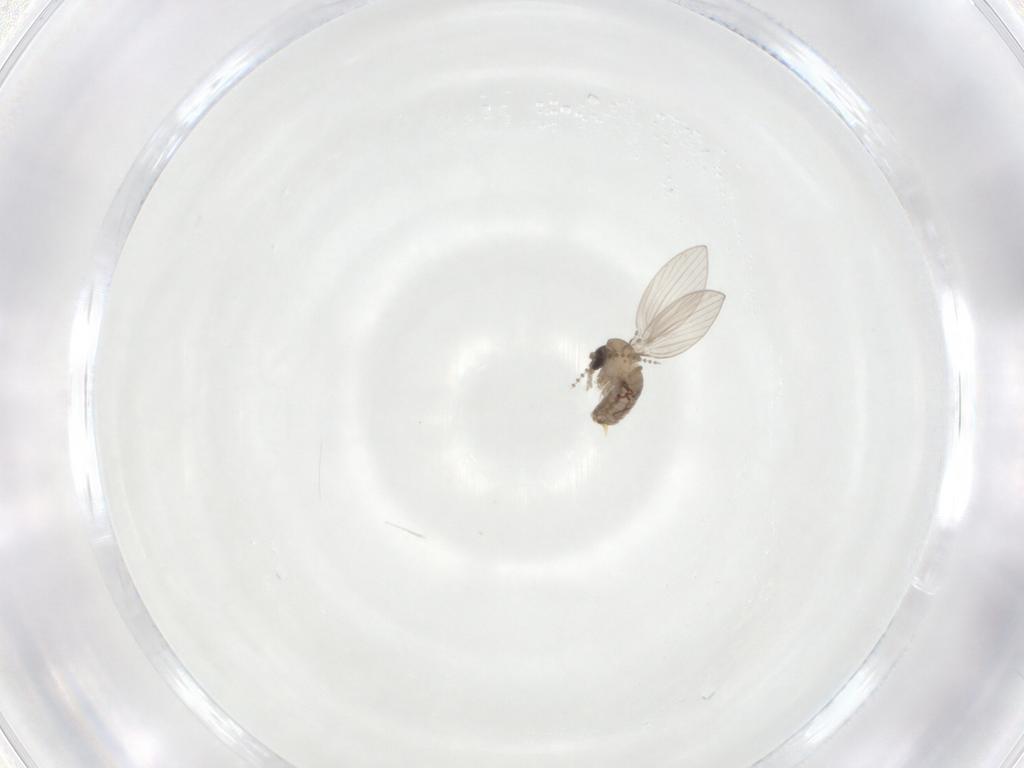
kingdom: Animalia
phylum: Arthropoda
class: Insecta
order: Diptera
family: Psychodidae
